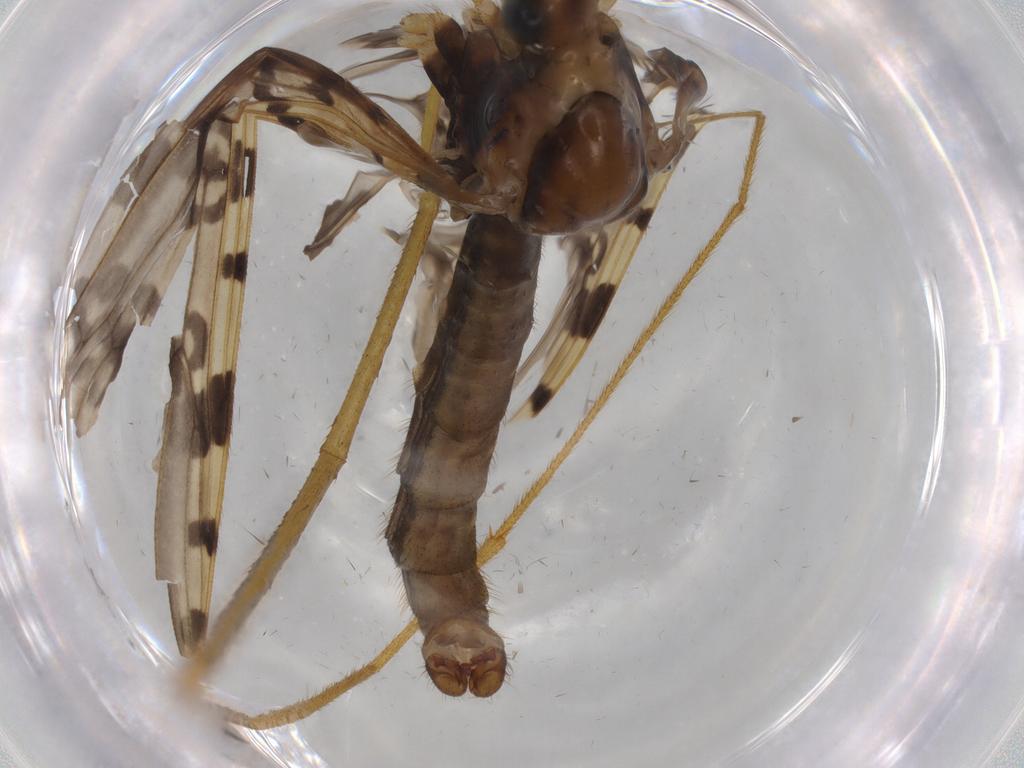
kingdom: Animalia
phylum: Arthropoda
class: Insecta
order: Diptera
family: Limoniidae
